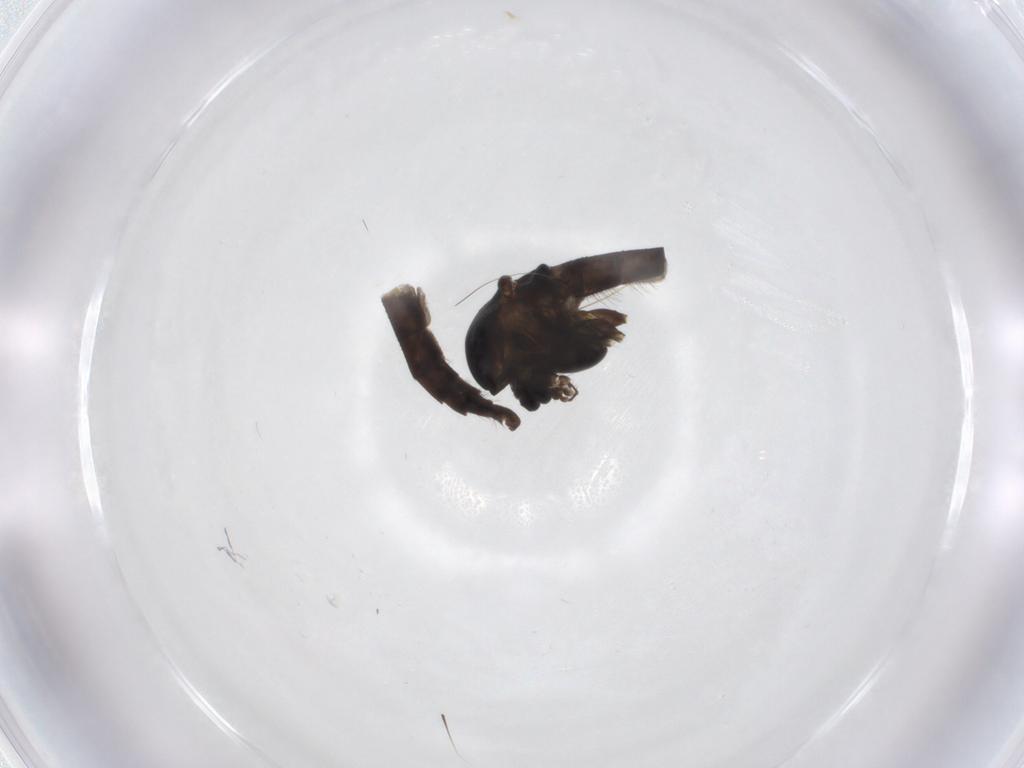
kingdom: Animalia
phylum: Arthropoda
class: Insecta
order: Diptera
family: Chironomidae
